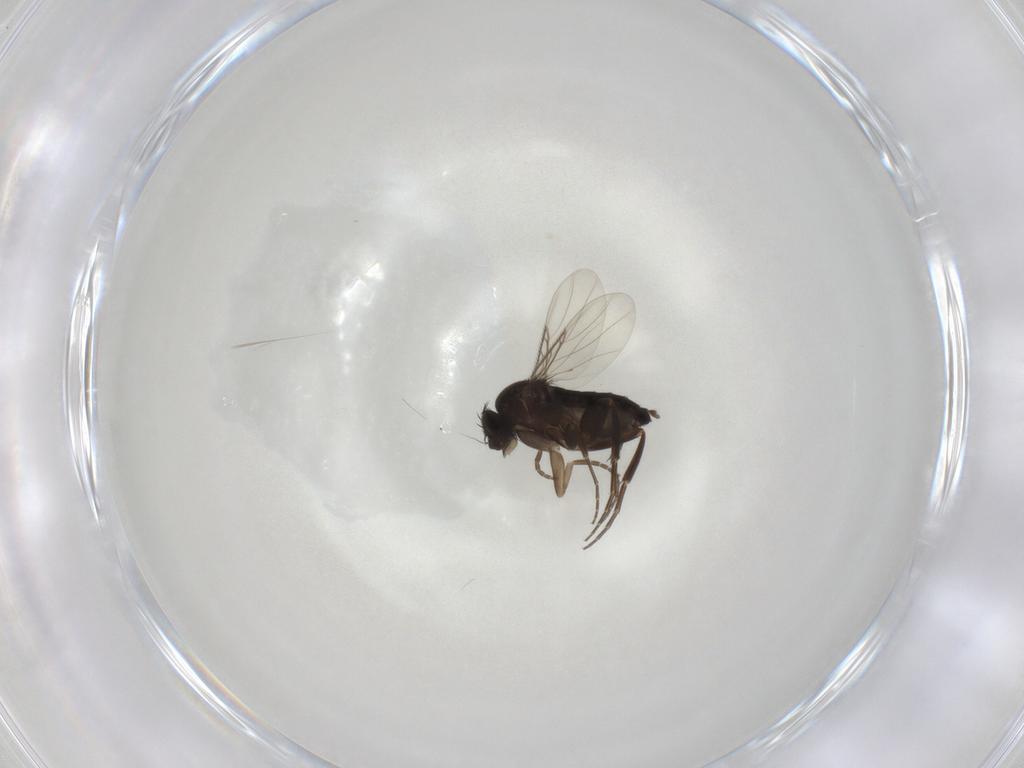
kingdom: Animalia
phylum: Arthropoda
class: Insecta
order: Diptera
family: Phoridae
